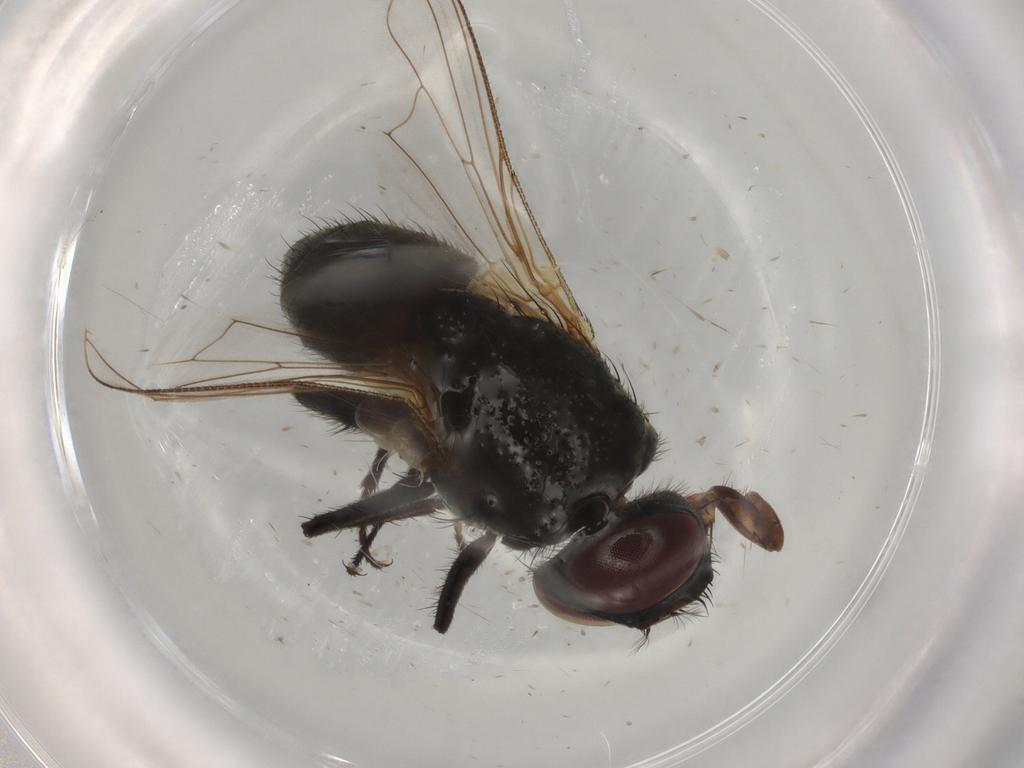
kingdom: Animalia
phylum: Arthropoda
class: Insecta
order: Diptera
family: Muscidae
